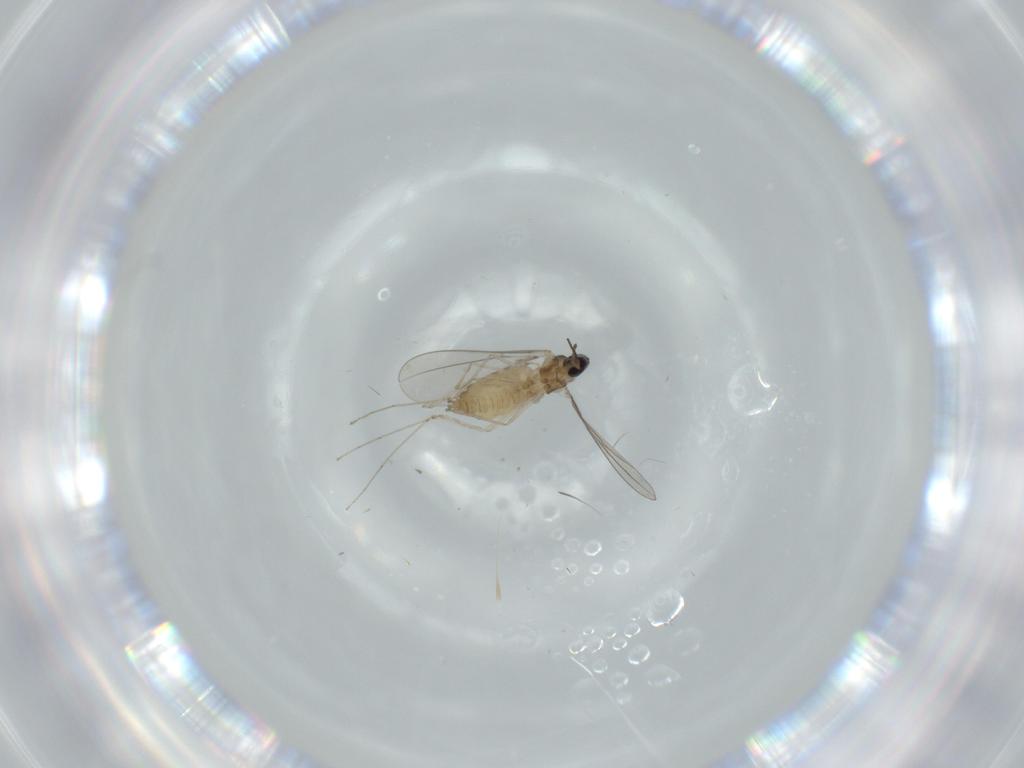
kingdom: Animalia
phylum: Arthropoda
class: Insecta
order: Diptera
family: Cecidomyiidae
